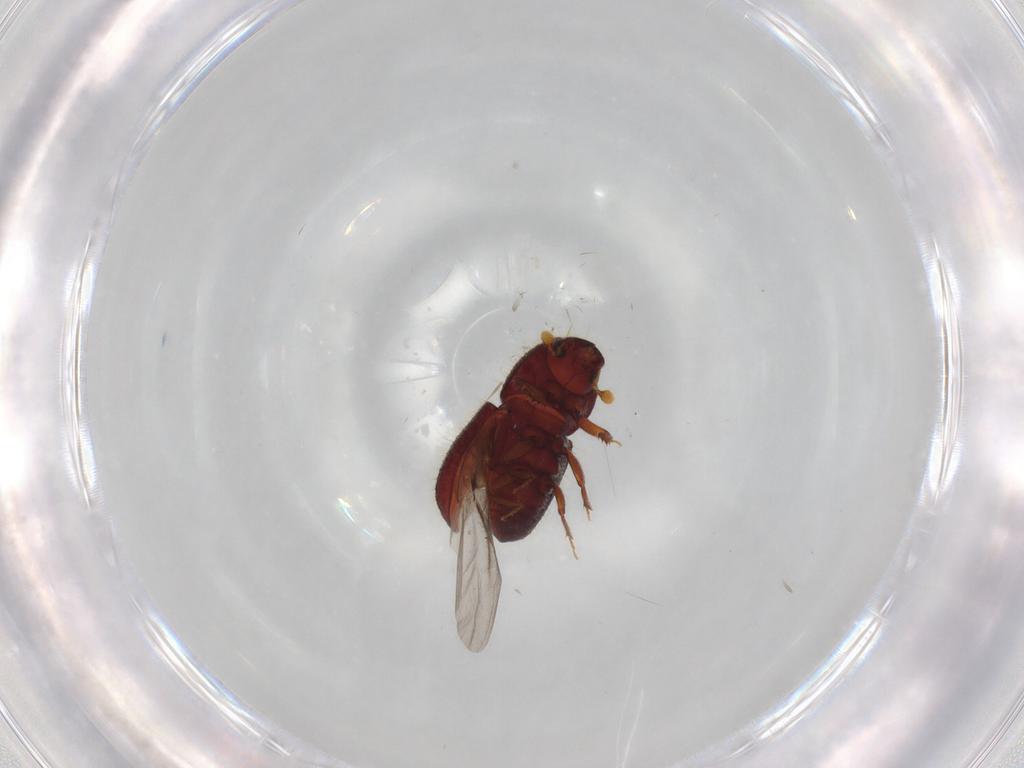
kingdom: Animalia
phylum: Arthropoda
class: Insecta
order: Coleoptera
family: Curculionidae
